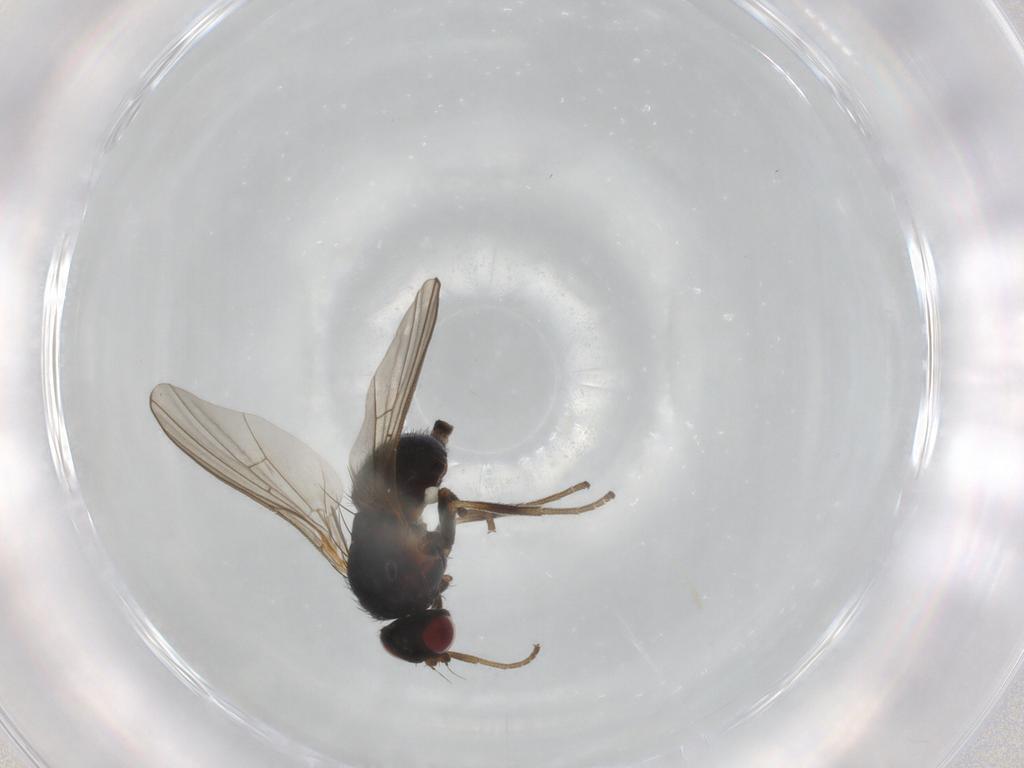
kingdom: Animalia
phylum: Arthropoda
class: Insecta
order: Diptera
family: Agromyzidae
